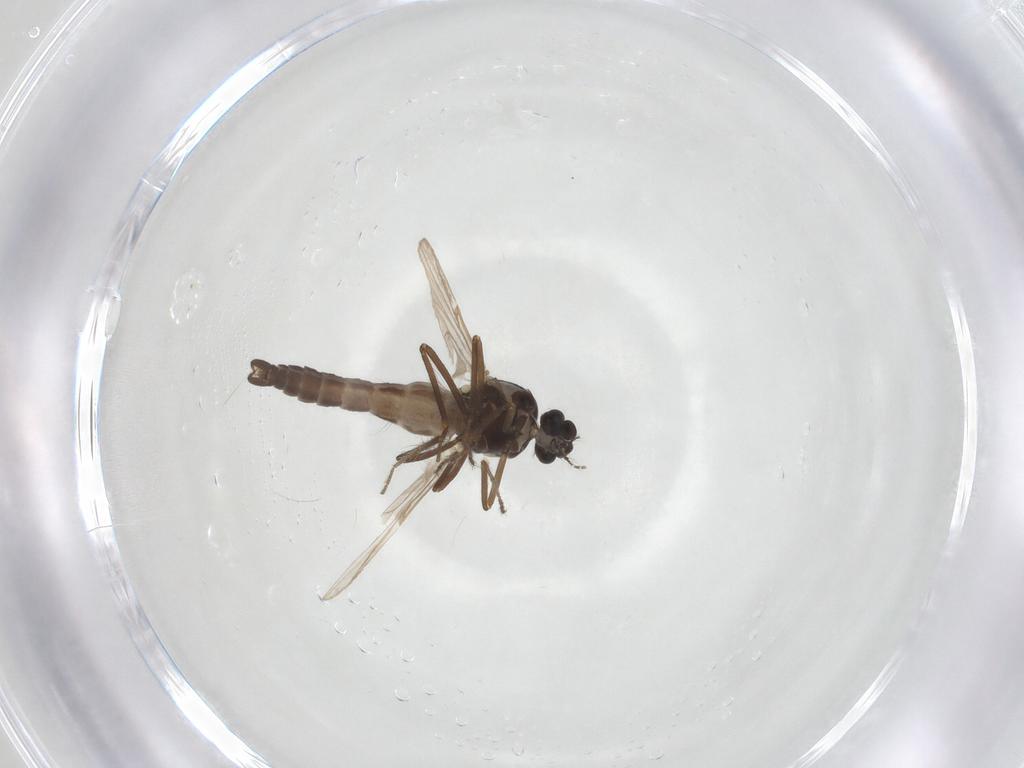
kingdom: Animalia
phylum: Arthropoda
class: Insecta
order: Diptera
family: Ceratopogonidae
